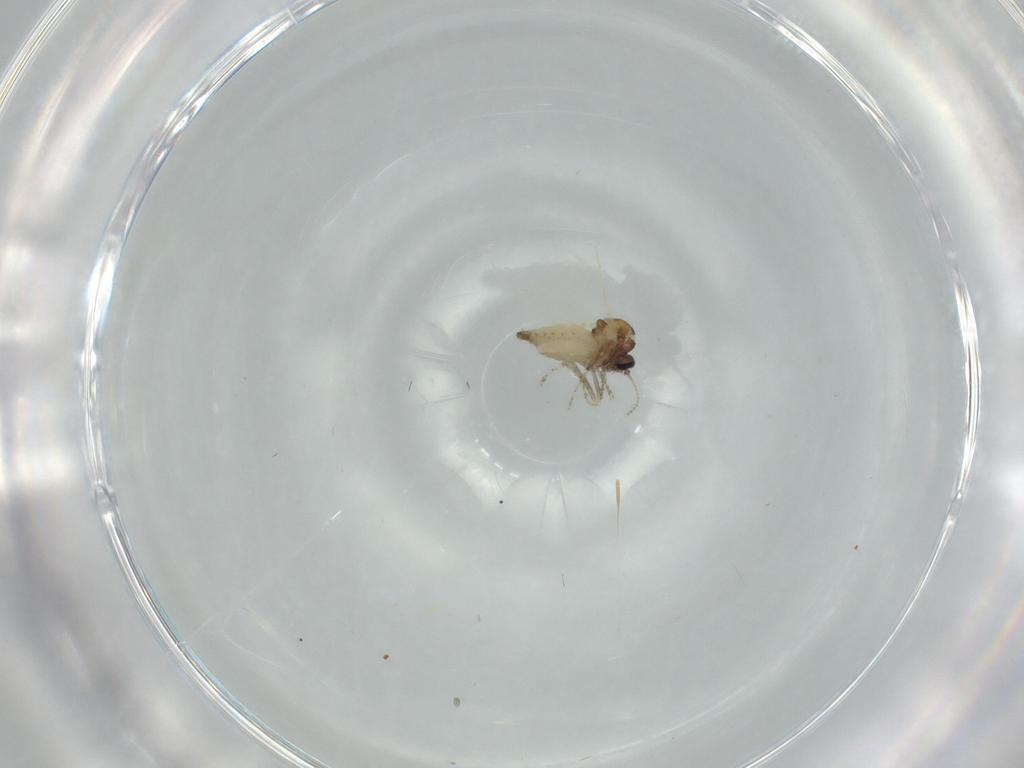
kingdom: Animalia
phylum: Arthropoda
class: Insecta
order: Diptera
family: Ceratopogonidae
